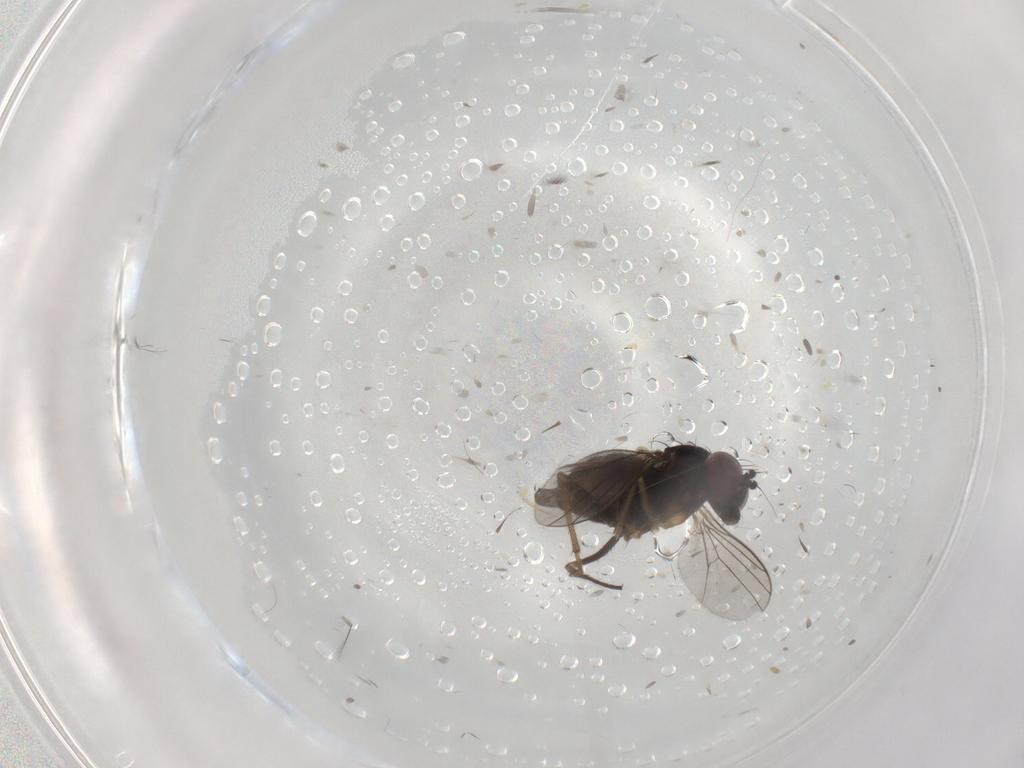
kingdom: Animalia
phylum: Arthropoda
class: Insecta
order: Diptera
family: Dolichopodidae
